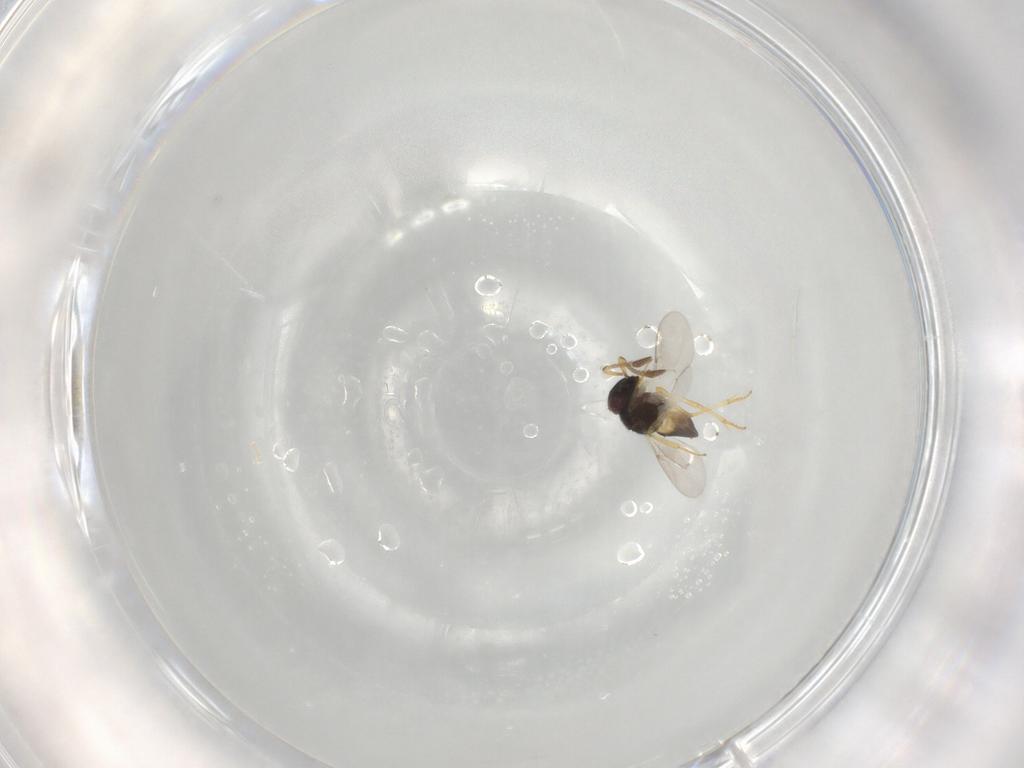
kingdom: Animalia
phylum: Arthropoda
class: Insecta
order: Hymenoptera
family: Encyrtidae
